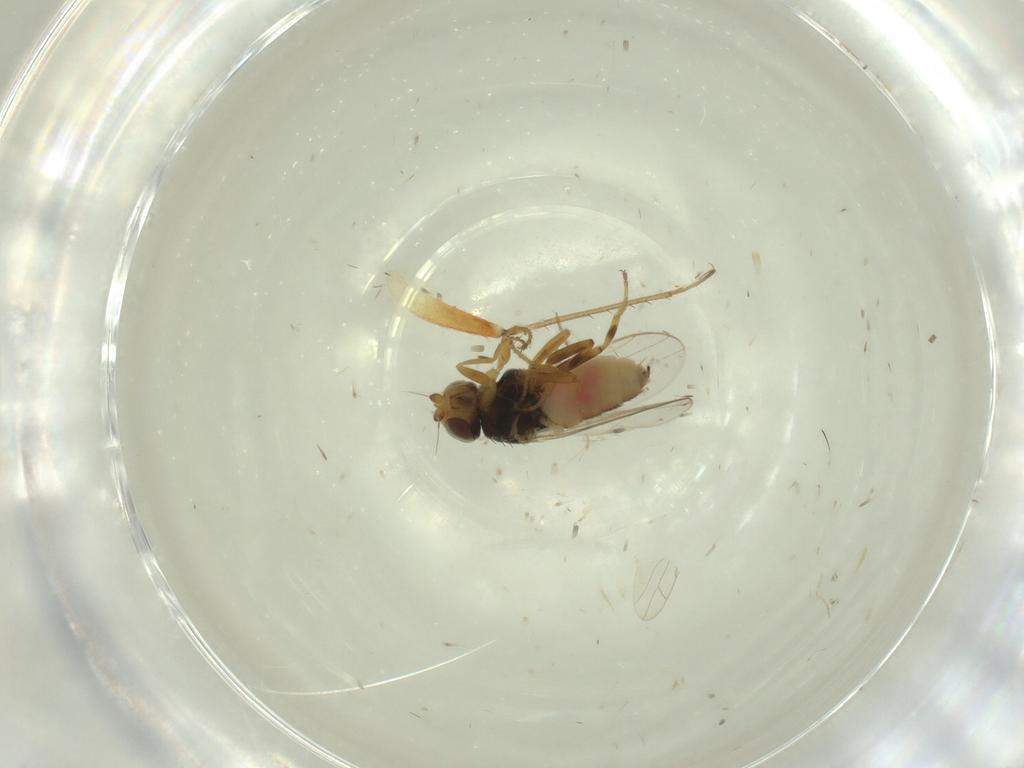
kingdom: Animalia
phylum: Arthropoda
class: Insecta
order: Diptera
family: Chloropidae
